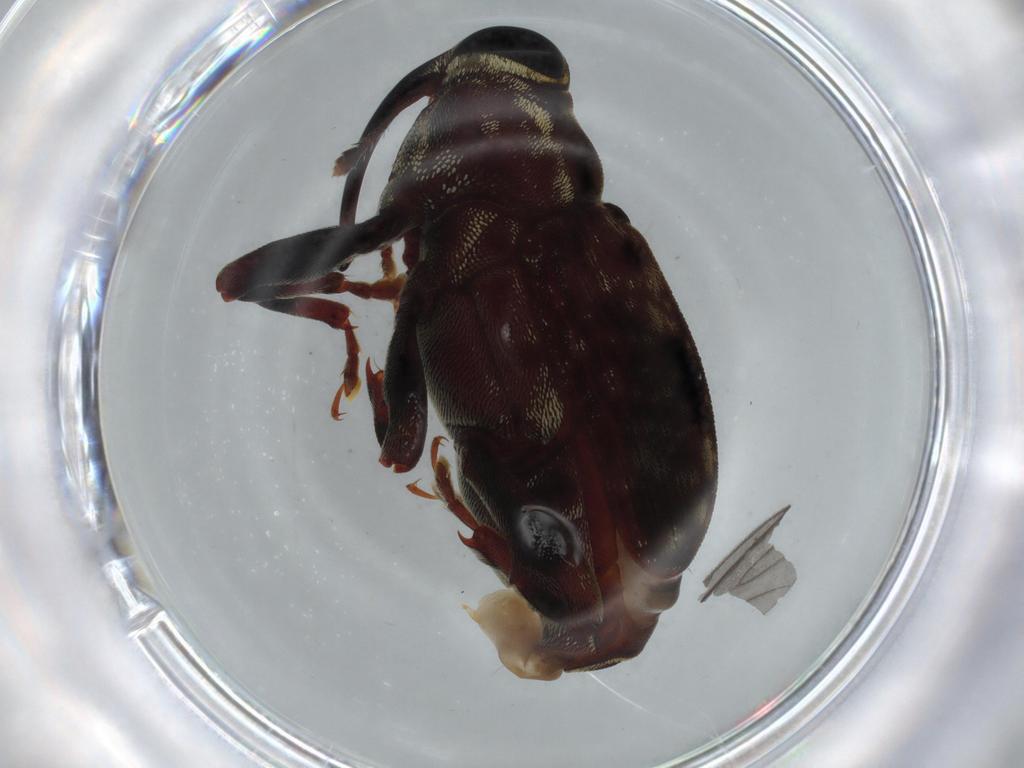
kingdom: Animalia
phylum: Arthropoda
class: Insecta
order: Coleoptera
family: Curculionidae
